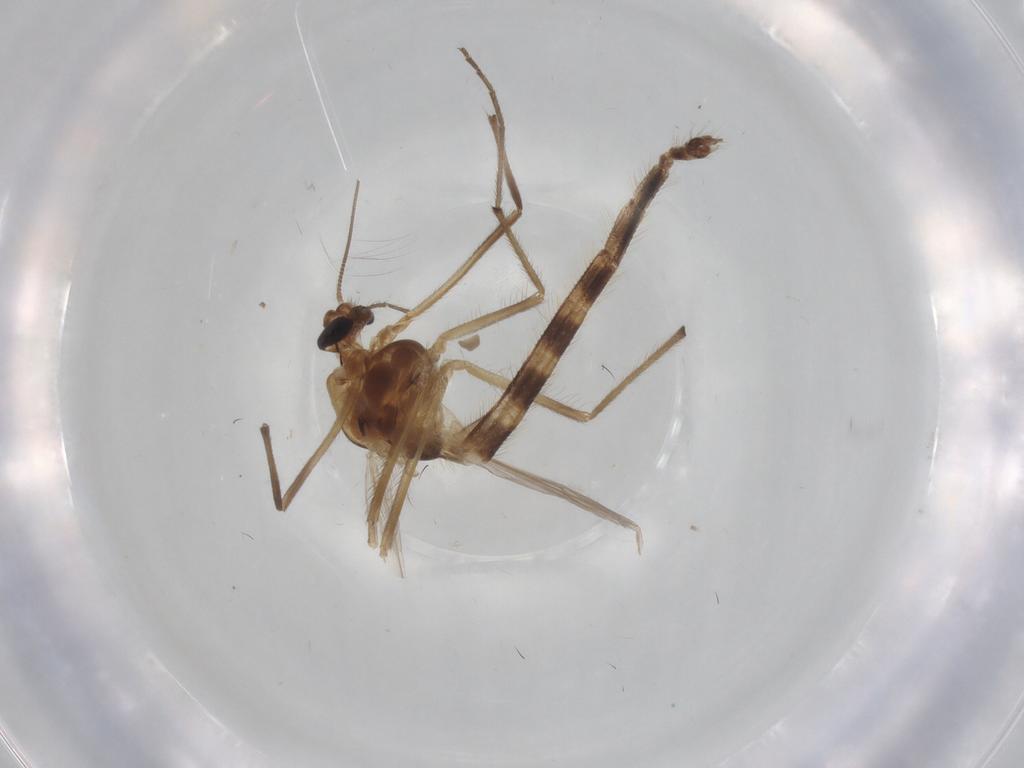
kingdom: Animalia
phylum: Arthropoda
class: Insecta
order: Diptera
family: Chironomidae
